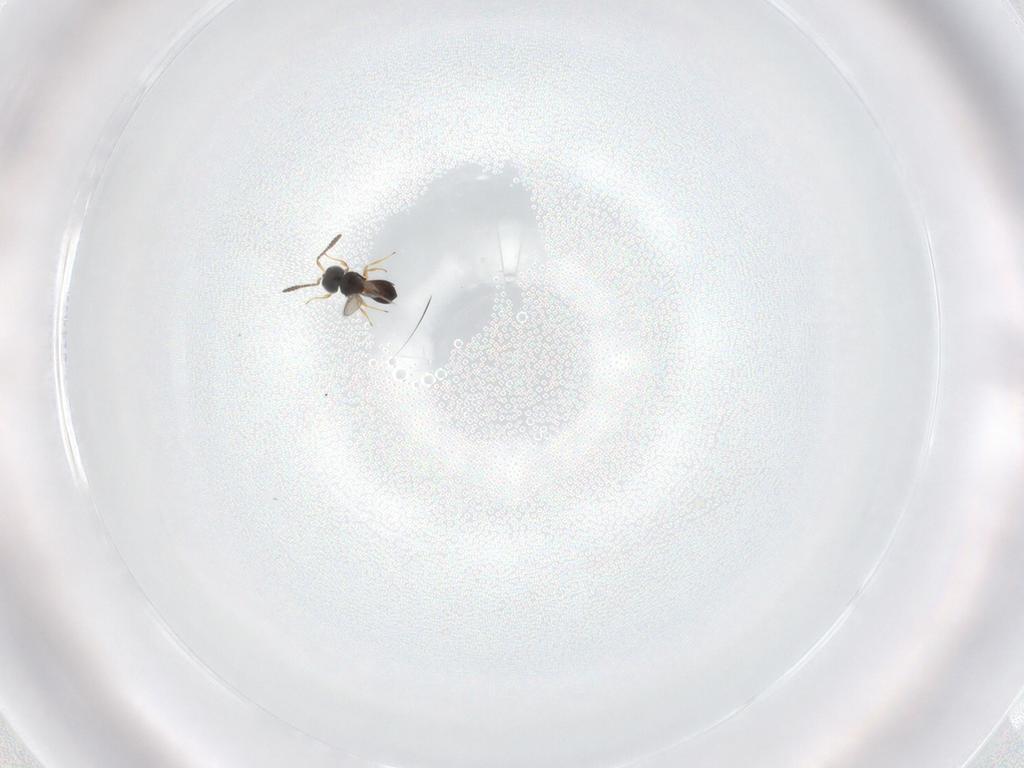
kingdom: Animalia
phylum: Arthropoda
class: Insecta
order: Hymenoptera
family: Scelionidae
